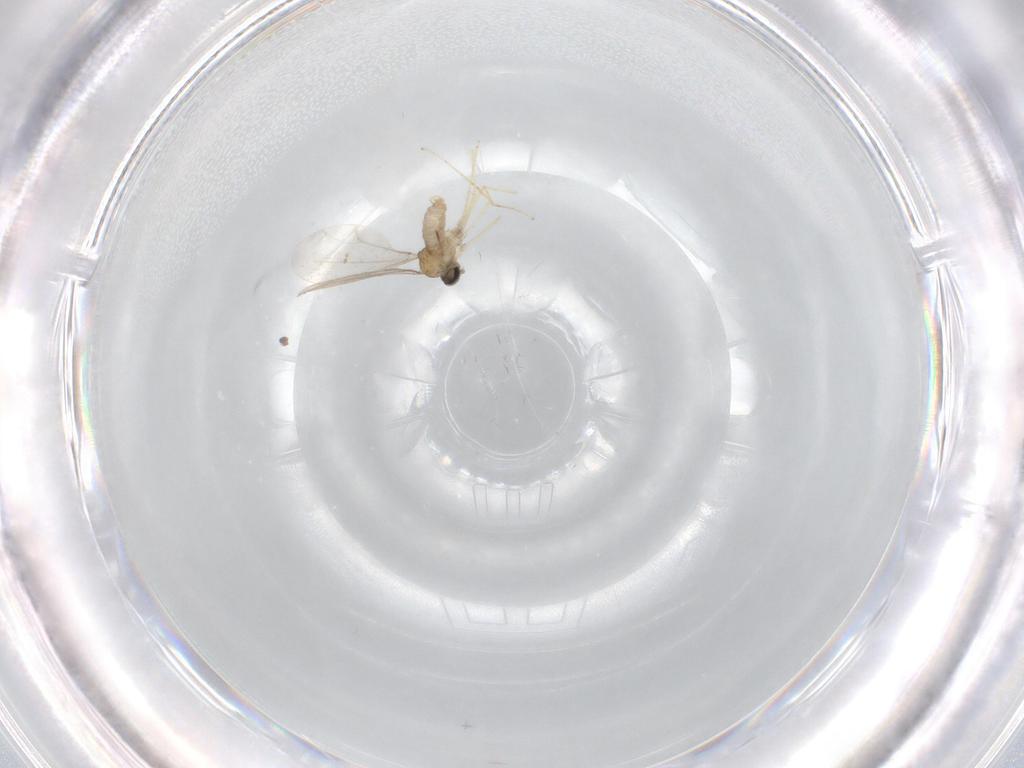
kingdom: Animalia
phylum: Arthropoda
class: Insecta
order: Diptera
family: Cecidomyiidae
